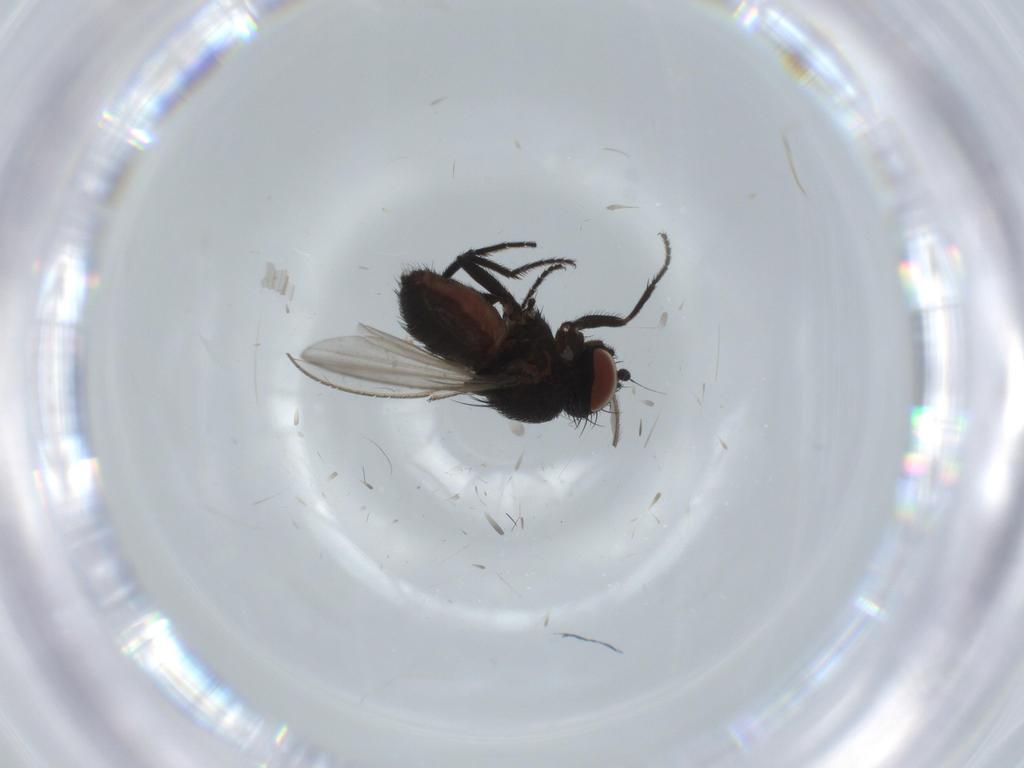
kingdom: Animalia
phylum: Arthropoda
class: Insecta
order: Diptera
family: Milichiidae
